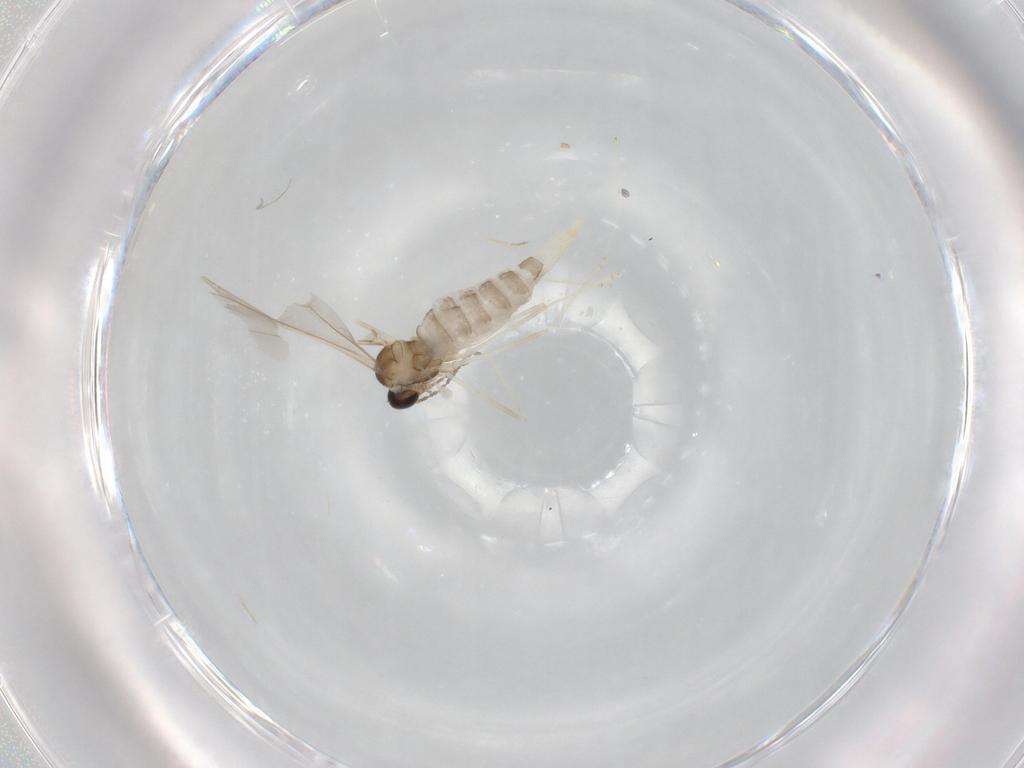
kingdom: Animalia
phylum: Arthropoda
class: Insecta
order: Diptera
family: Cecidomyiidae
